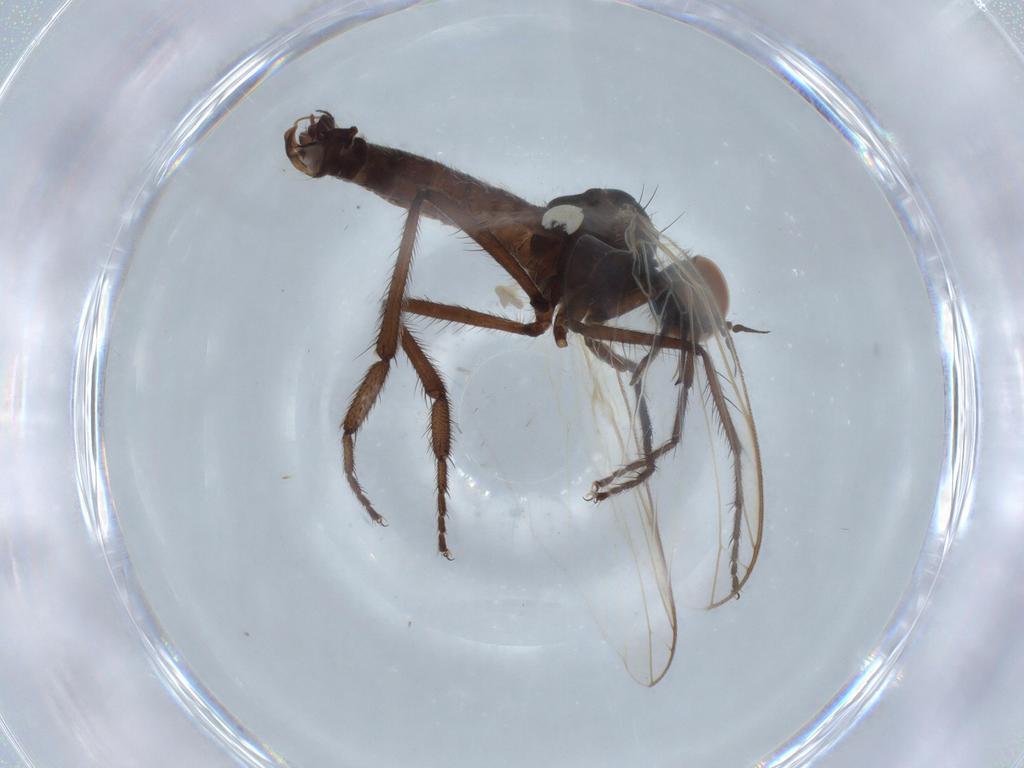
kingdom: Animalia
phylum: Arthropoda
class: Insecta
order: Diptera
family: Empididae
